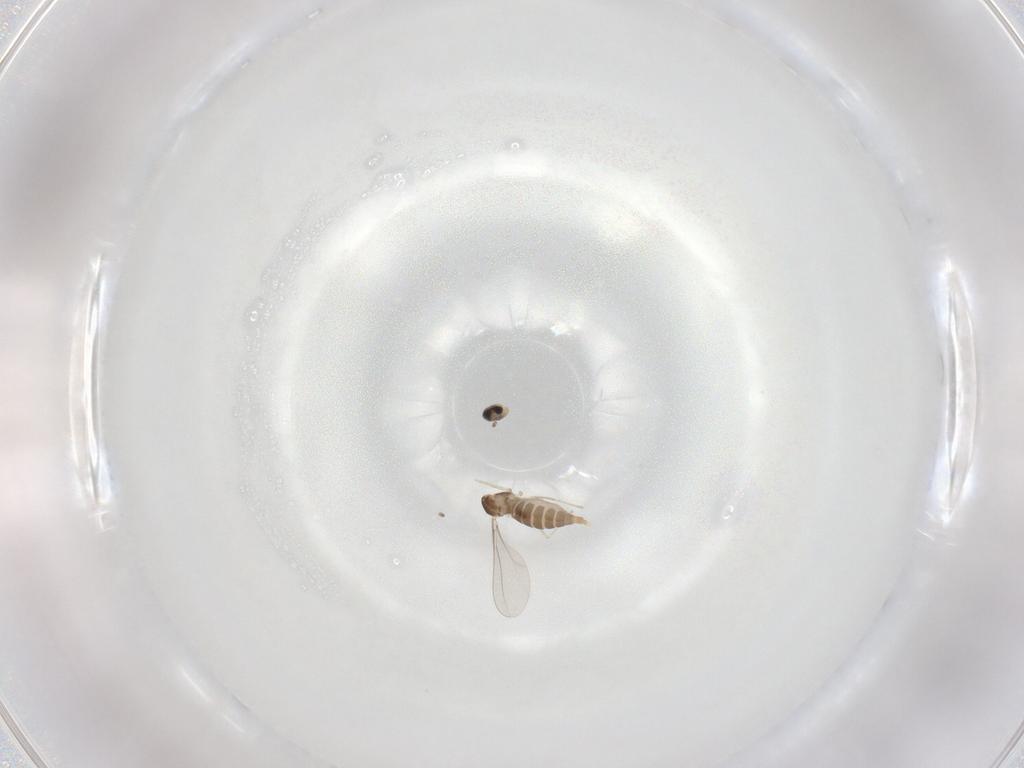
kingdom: Animalia
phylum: Arthropoda
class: Insecta
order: Diptera
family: Cecidomyiidae
